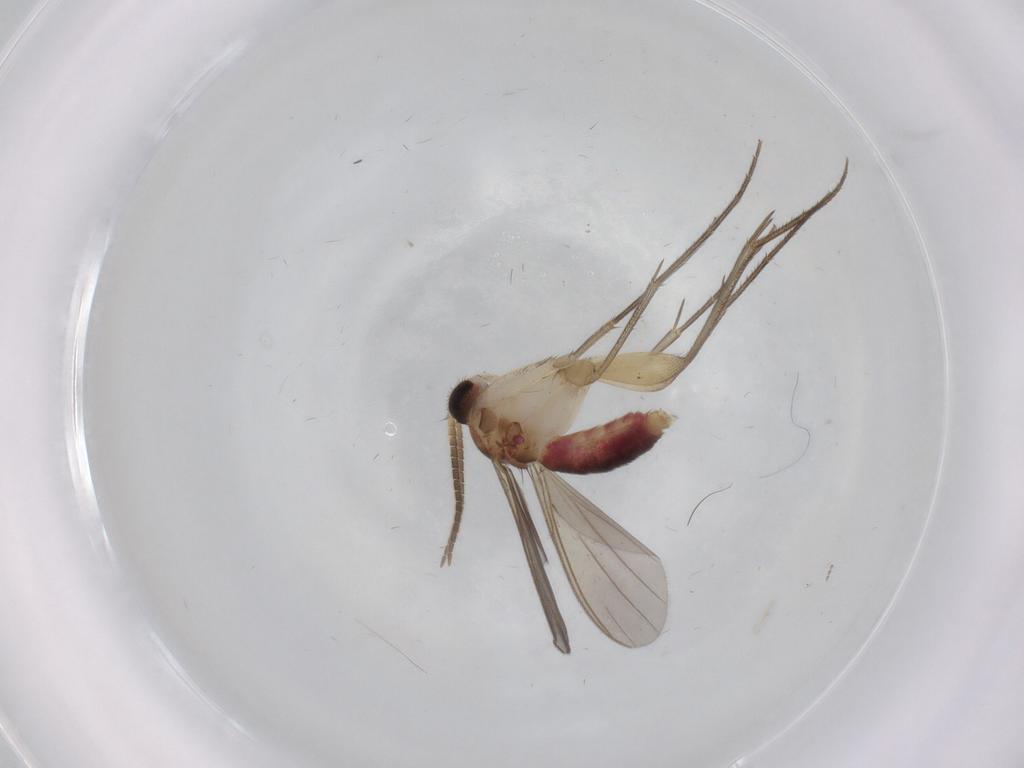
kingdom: Animalia
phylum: Arthropoda
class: Insecta
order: Diptera
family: Mycetophilidae
